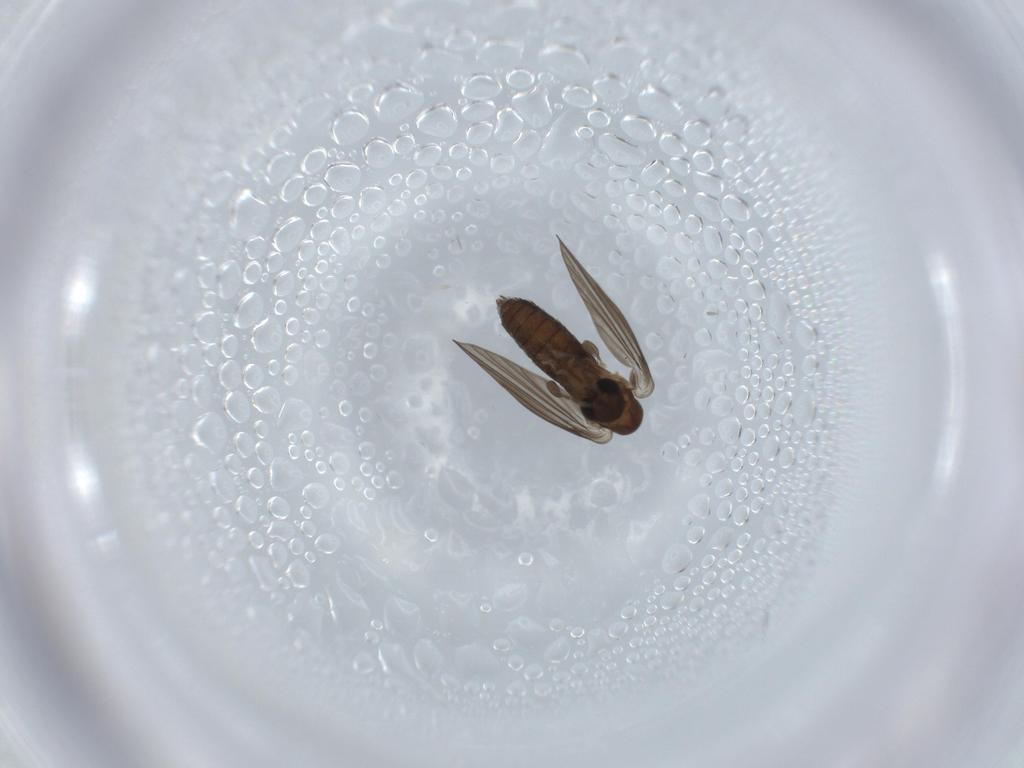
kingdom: Animalia
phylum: Arthropoda
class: Insecta
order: Diptera
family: Psychodidae
